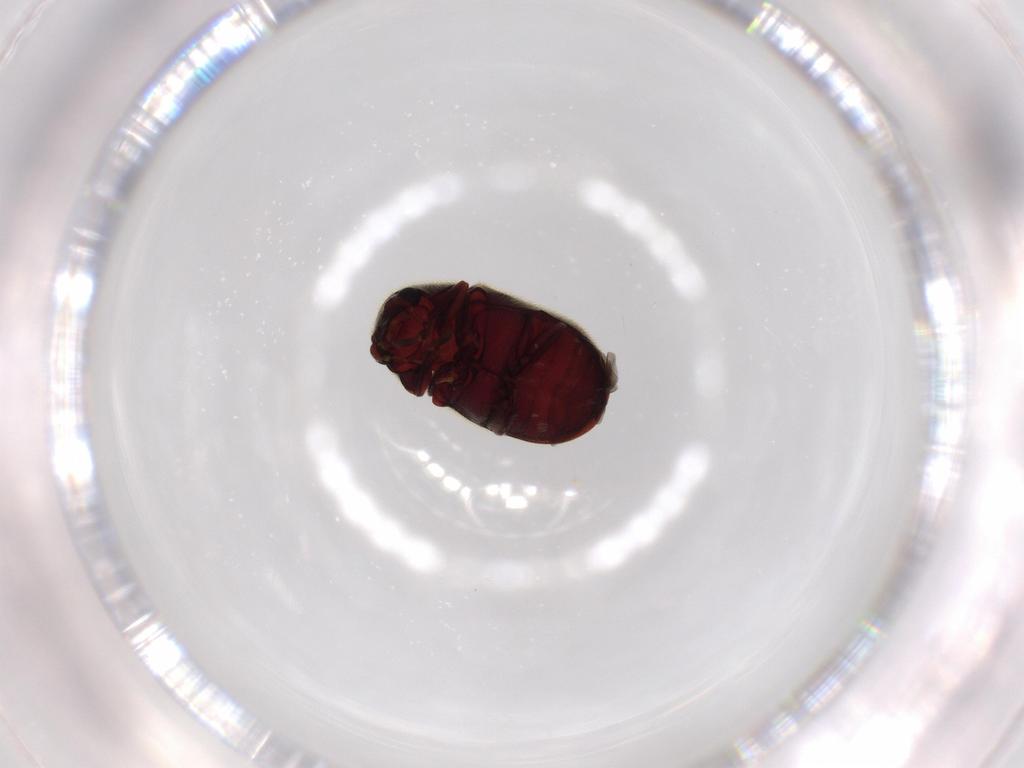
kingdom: Animalia
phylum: Arthropoda
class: Insecta
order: Coleoptera
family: Ptinidae
